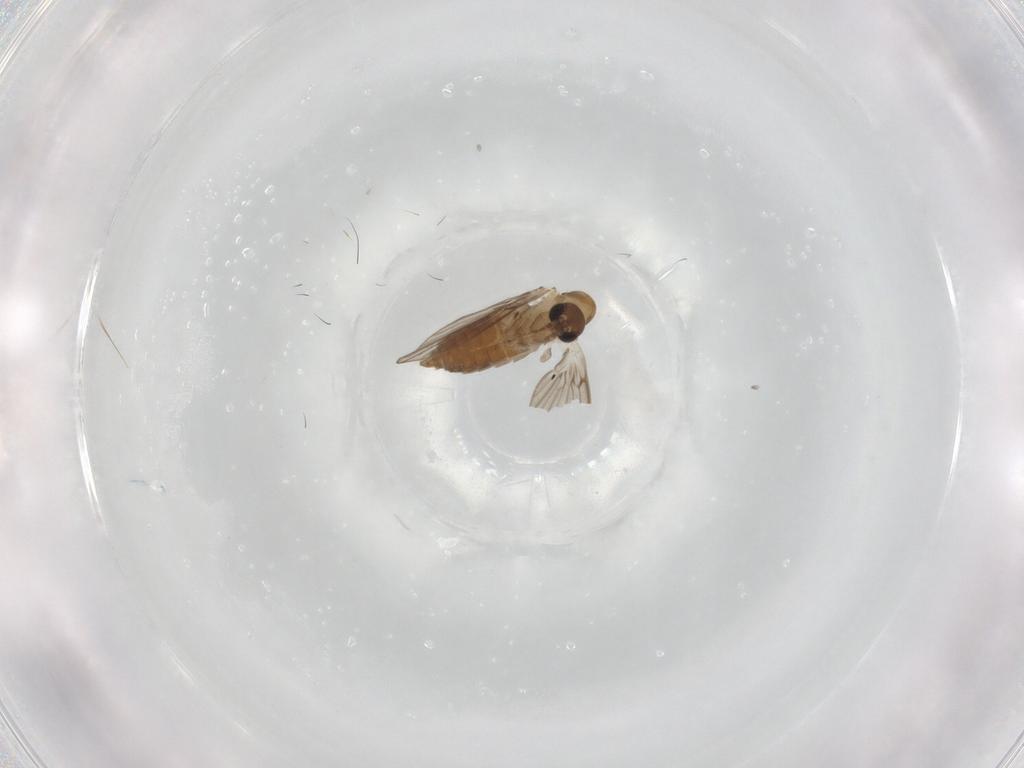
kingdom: Animalia
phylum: Arthropoda
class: Insecta
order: Diptera
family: Bombyliidae
